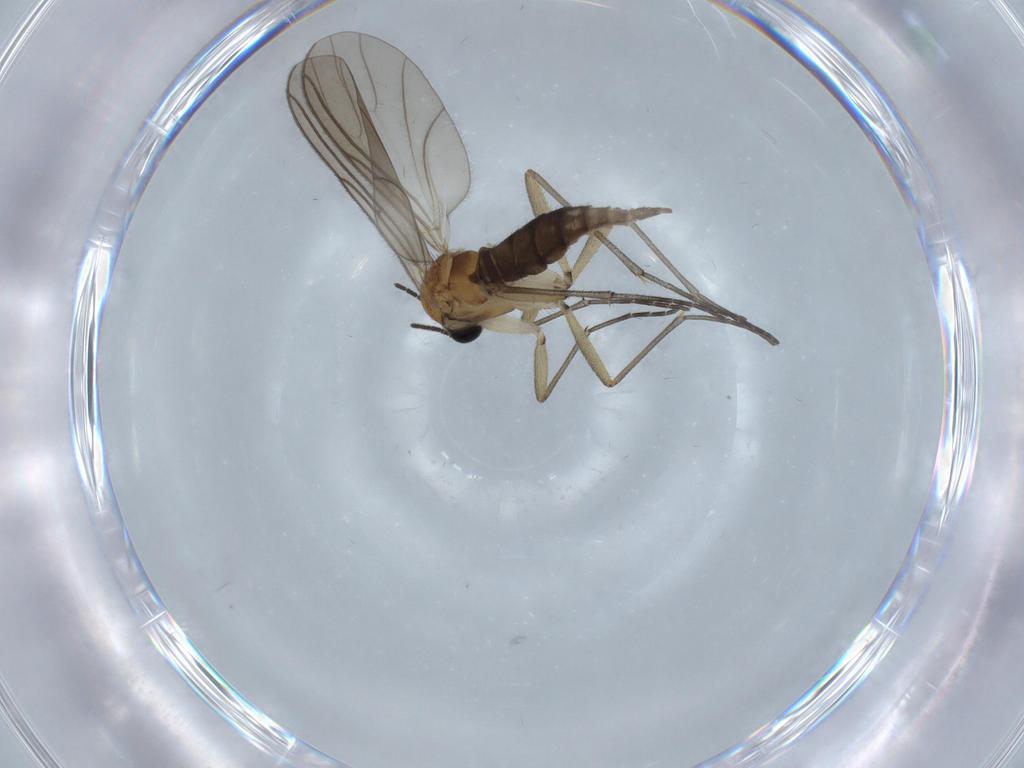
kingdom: Animalia
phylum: Arthropoda
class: Insecta
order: Diptera
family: Sciaridae
